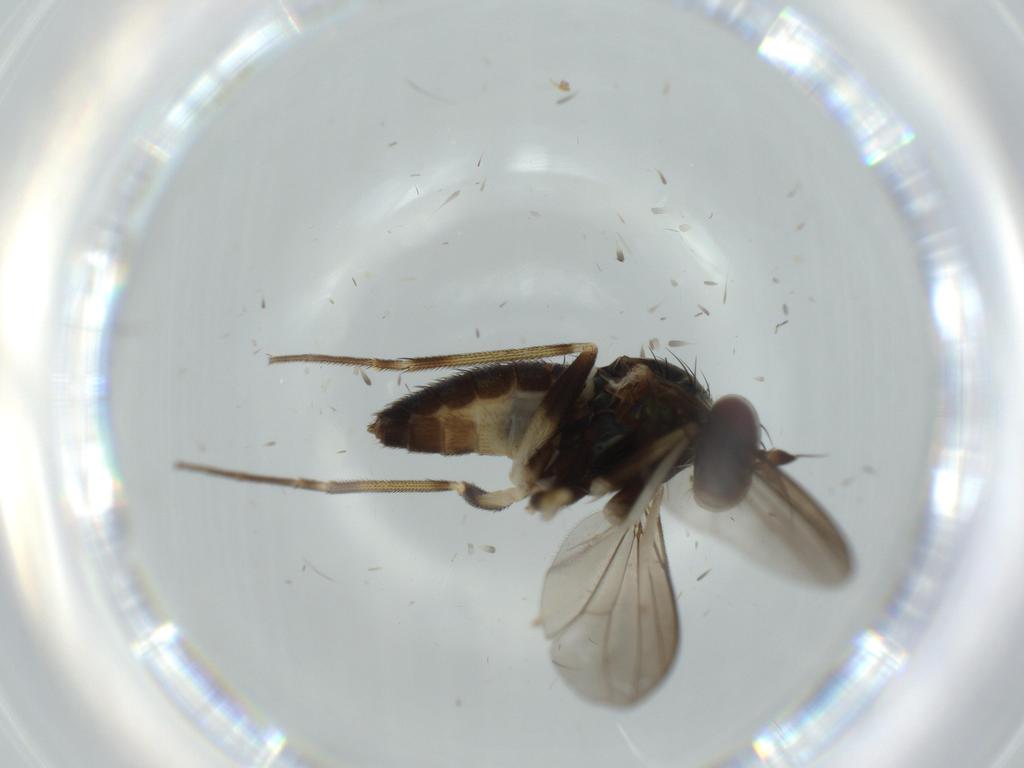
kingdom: Animalia
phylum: Arthropoda
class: Insecta
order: Diptera
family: Dolichopodidae
